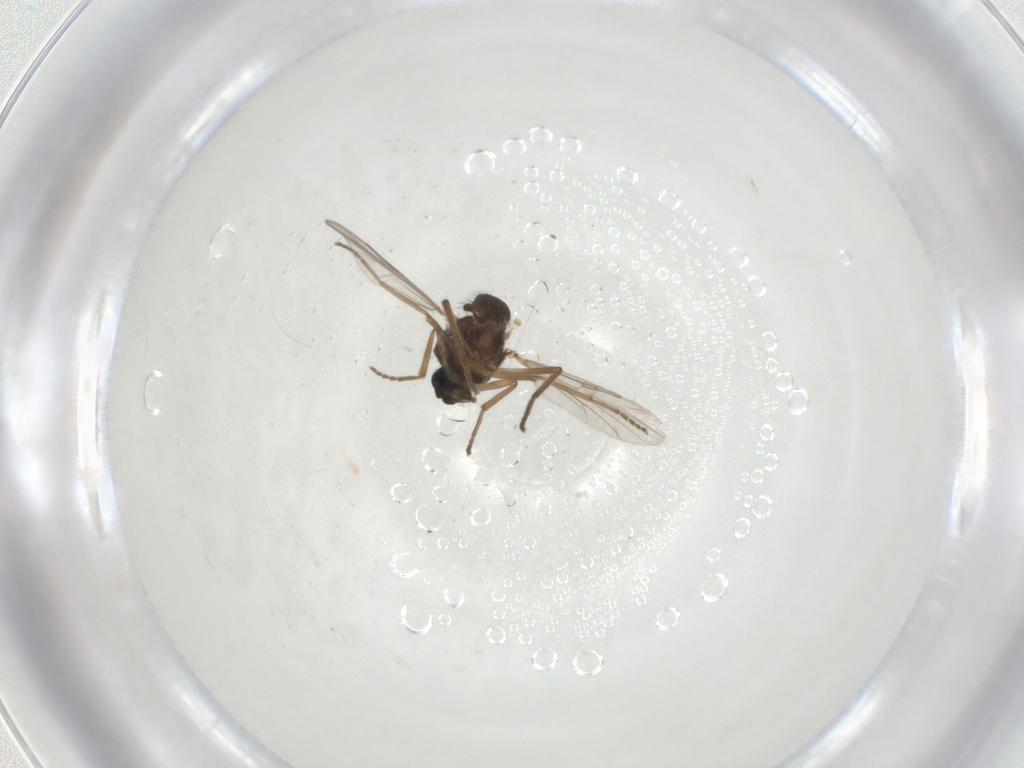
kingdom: Animalia
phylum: Arthropoda
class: Insecta
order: Diptera
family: Ceratopogonidae
